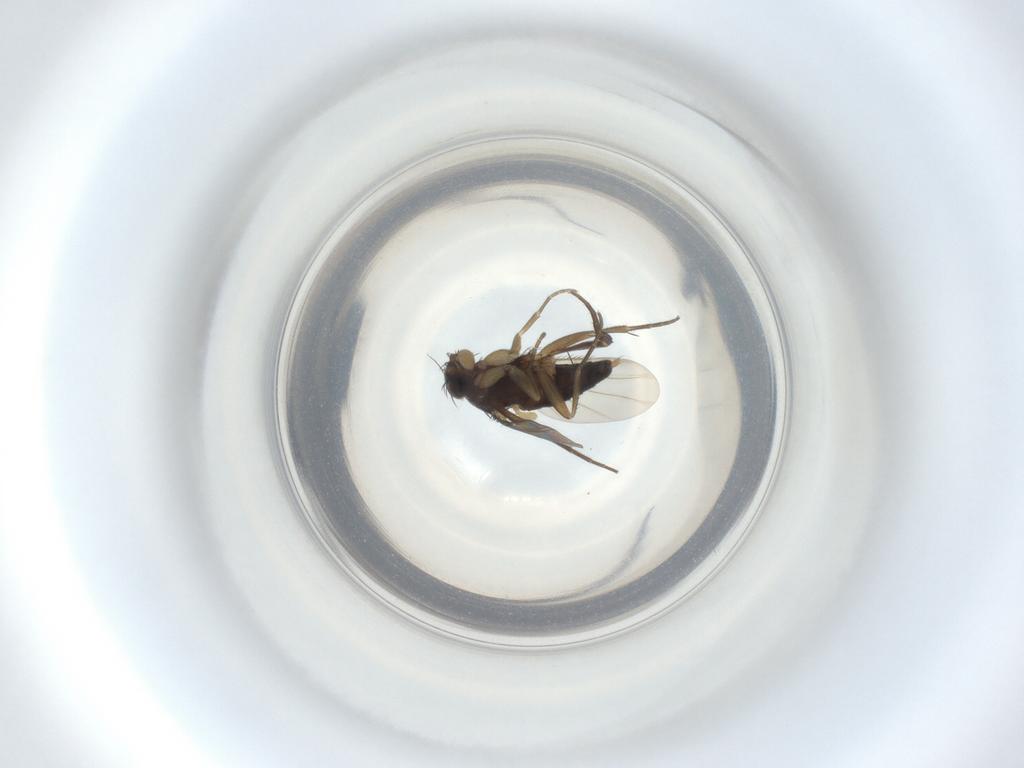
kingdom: Animalia
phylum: Arthropoda
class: Insecta
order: Diptera
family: Phoridae
